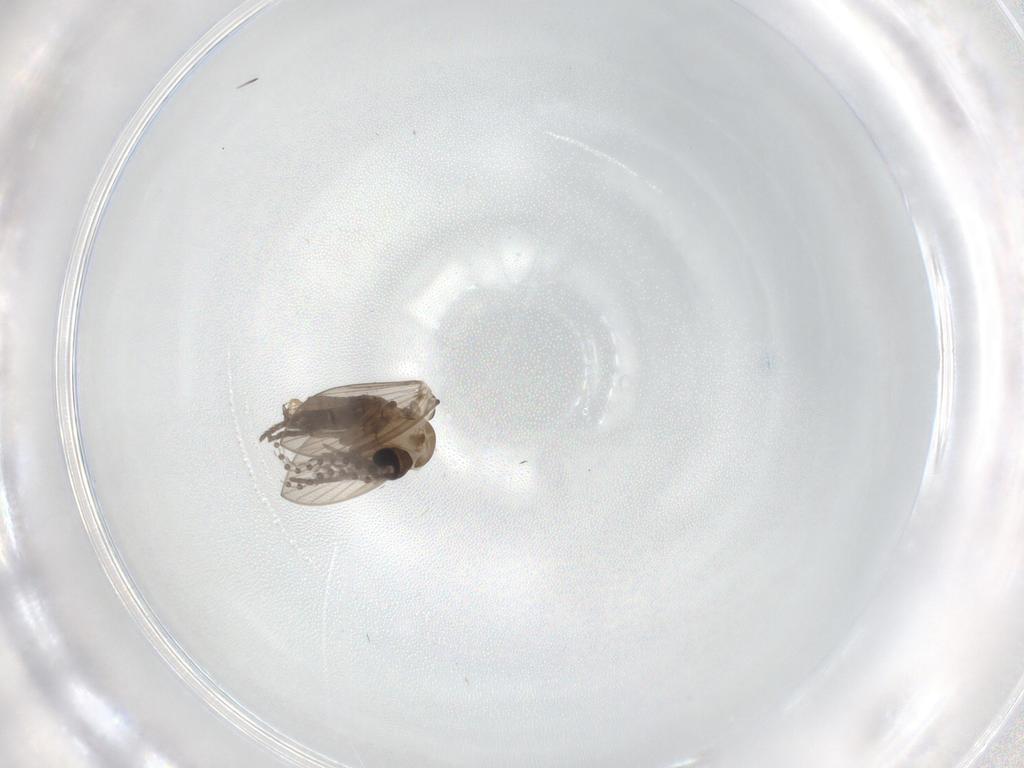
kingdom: Animalia
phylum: Arthropoda
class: Insecta
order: Diptera
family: Psychodidae
